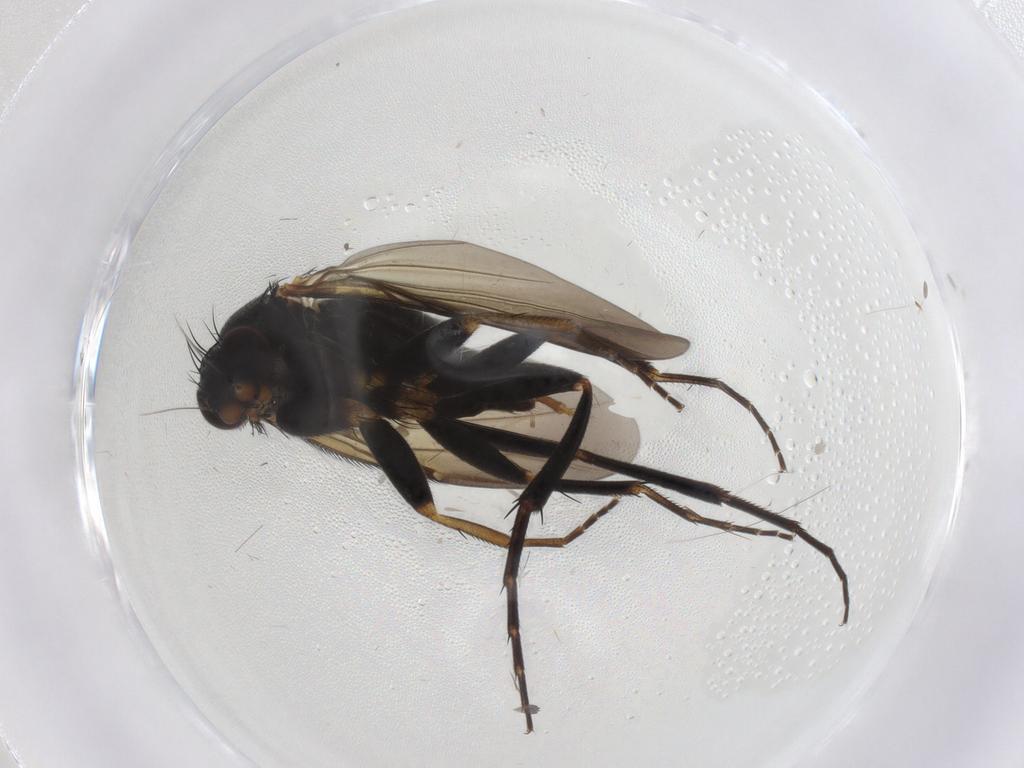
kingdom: Animalia
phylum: Arthropoda
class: Insecta
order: Diptera
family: Phoridae
